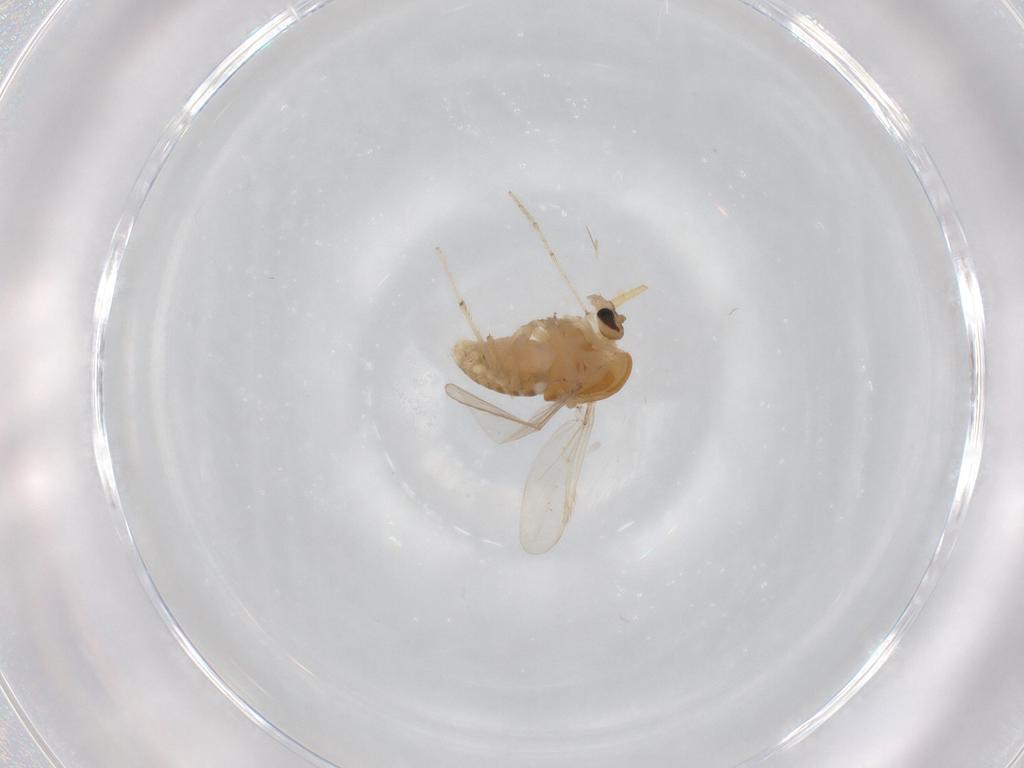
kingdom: Animalia
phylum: Arthropoda
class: Insecta
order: Diptera
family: Chironomidae
